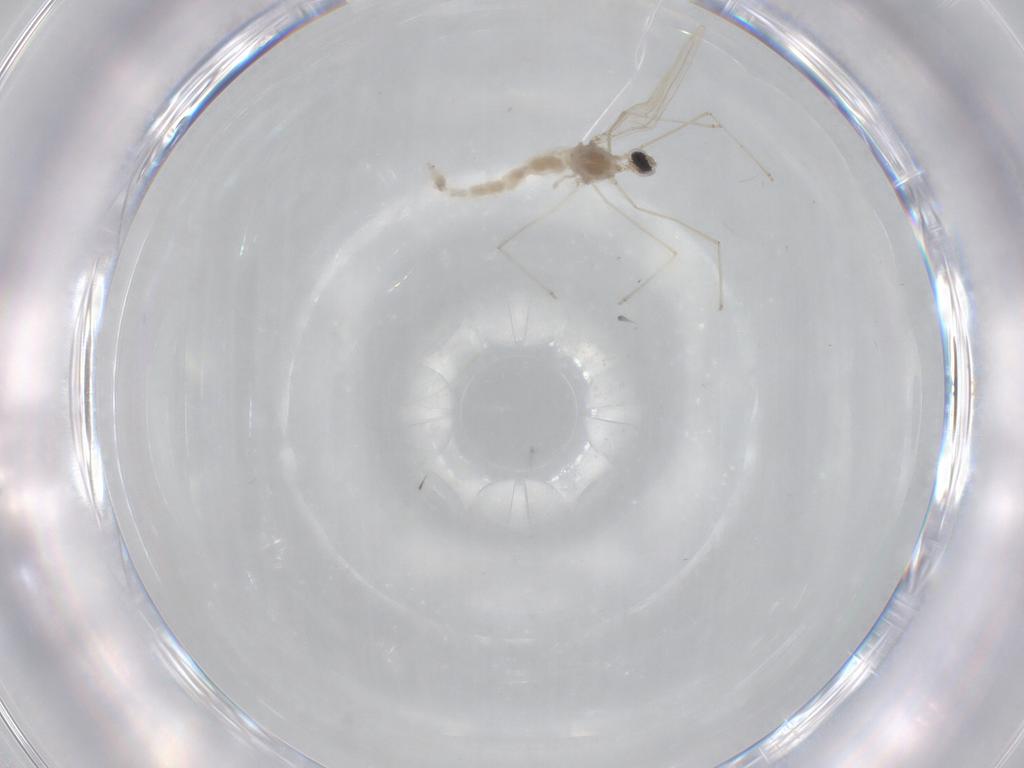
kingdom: Animalia
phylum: Arthropoda
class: Insecta
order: Diptera
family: Cecidomyiidae
